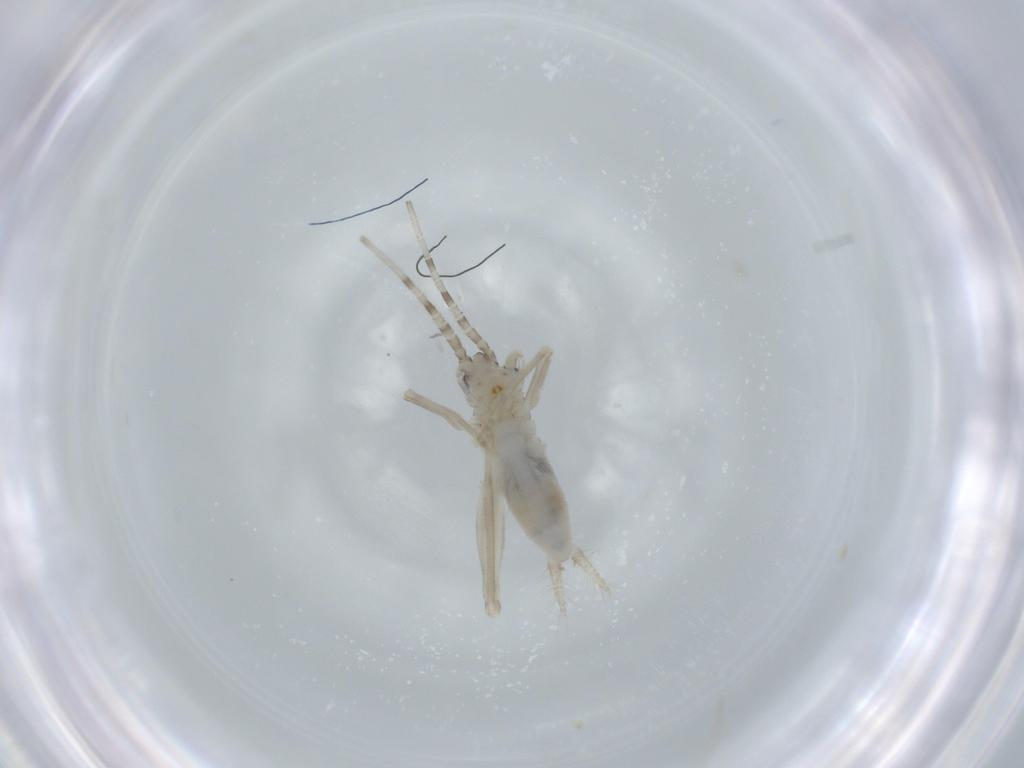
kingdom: Animalia
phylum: Arthropoda
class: Insecta
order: Orthoptera
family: Trigonidiidae
